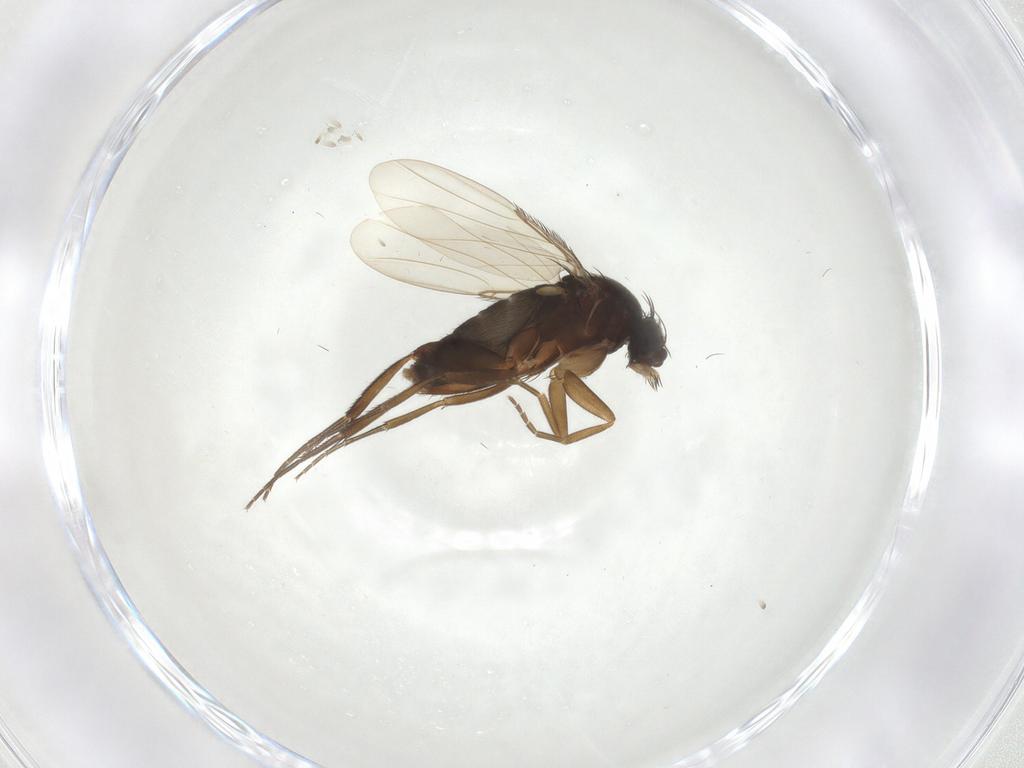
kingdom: Animalia
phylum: Arthropoda
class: Insecta
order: Diptera
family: Phoridae
